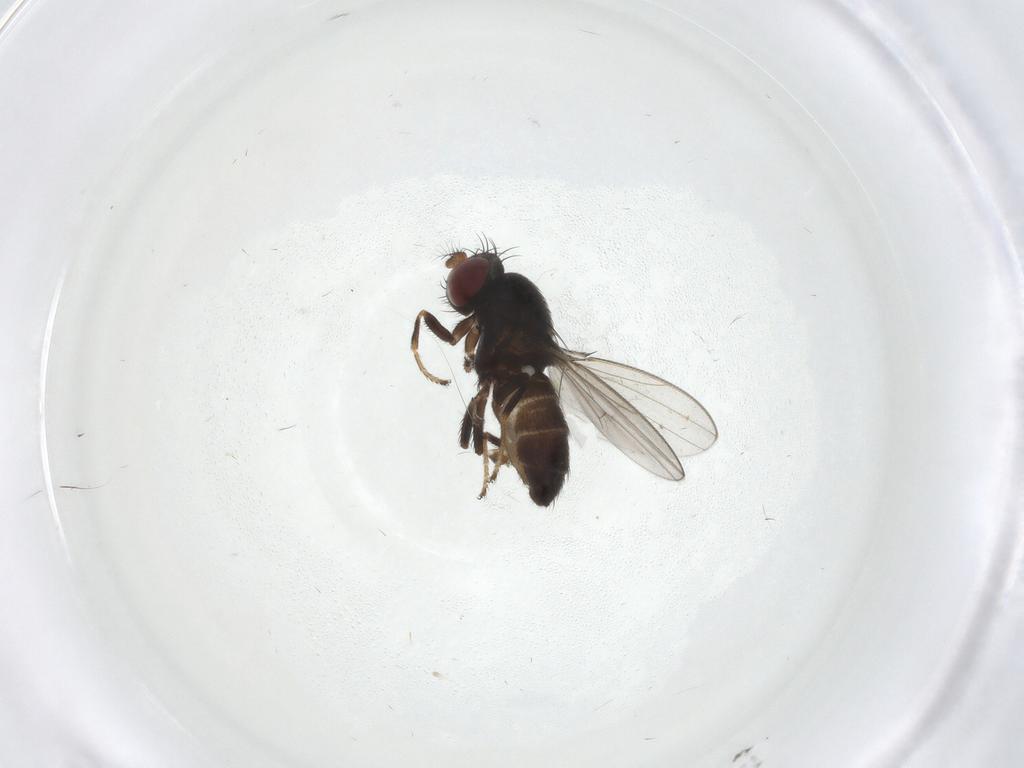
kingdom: Animalia
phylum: Arthropoda
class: Insecta
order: Diptera
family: Ephydridae
